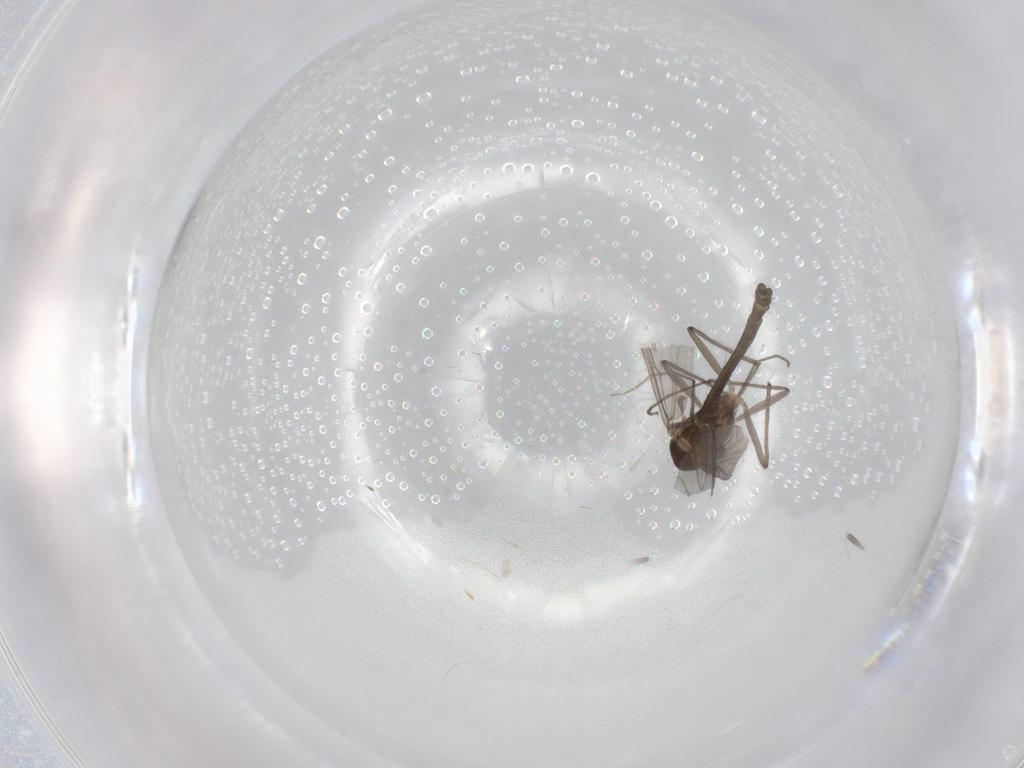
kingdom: Animalia
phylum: Arthropoda
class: Insecta
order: Diptera
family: Chironomidae
